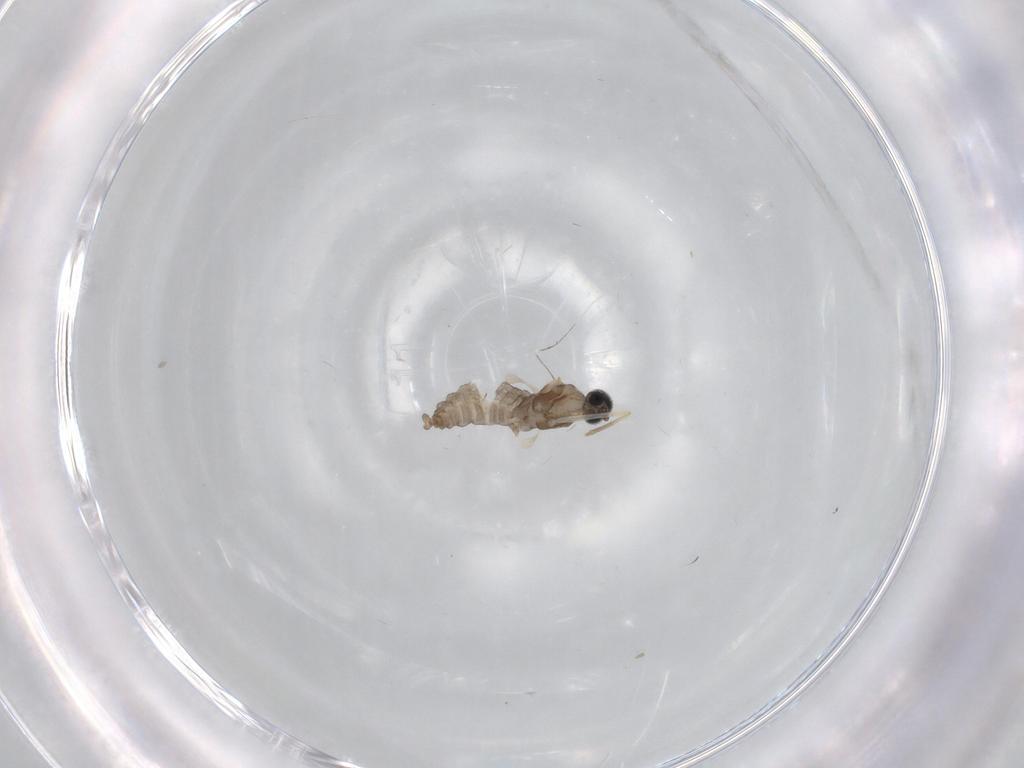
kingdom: Animalia
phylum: Arthropoda
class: Insecta
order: Diptera
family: Cecidomyiidae
